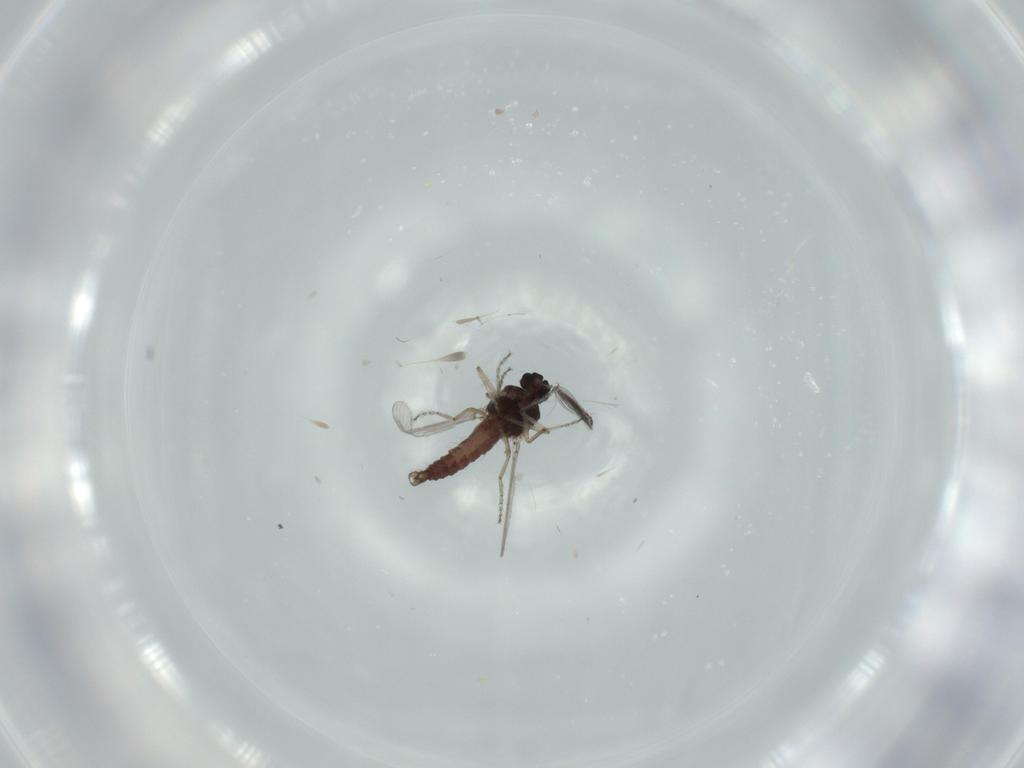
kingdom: Animalia
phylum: Arthropoda
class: Insecta
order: Diptera
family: Ceratopogonidae
